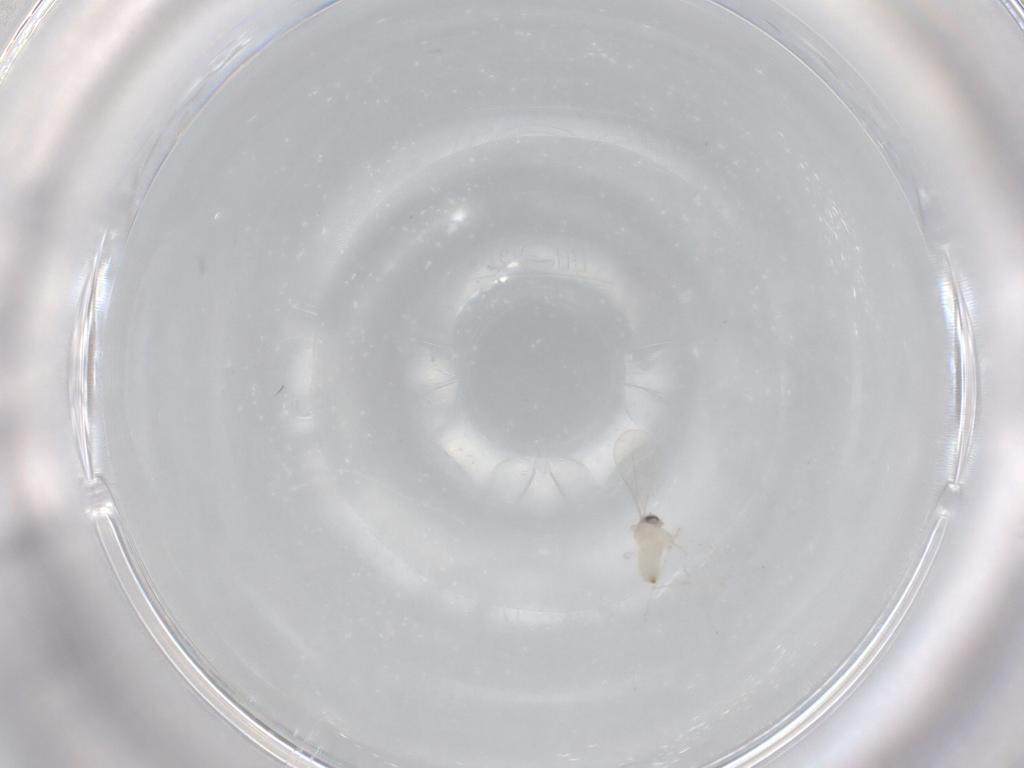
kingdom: Animalia
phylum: Arthropoda
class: Insecta
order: Diptera
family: Cecidomyiidae
